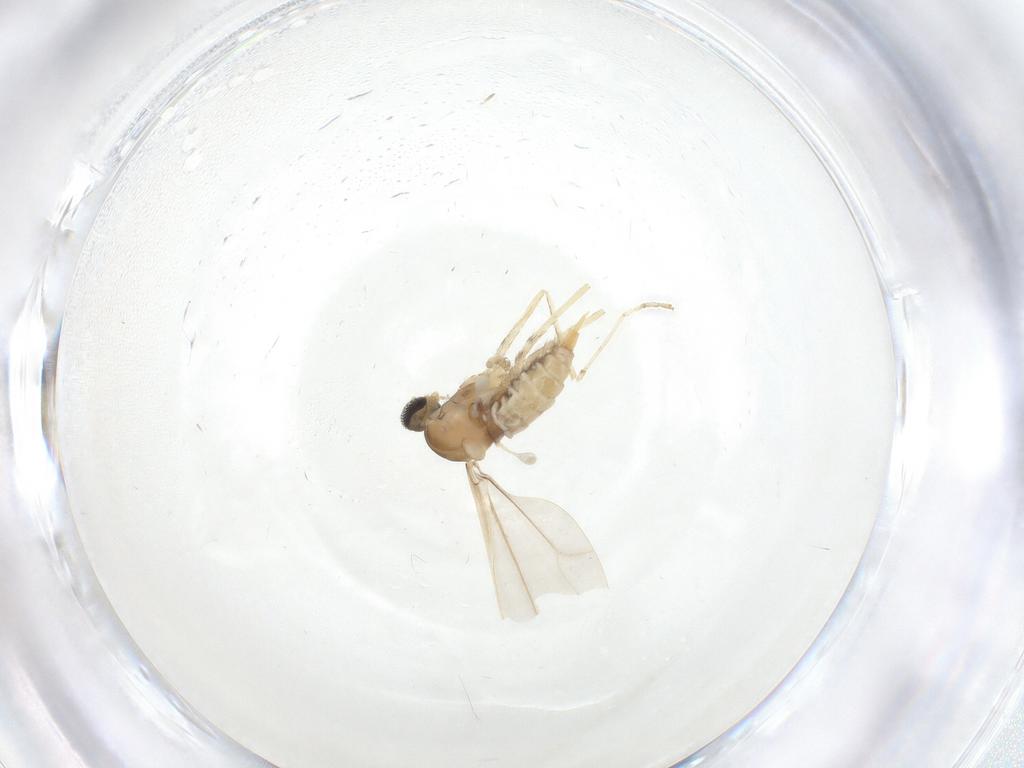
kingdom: Animalia
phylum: Arthropoda
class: Insecta
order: Diptera
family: Cecidomyiidae
